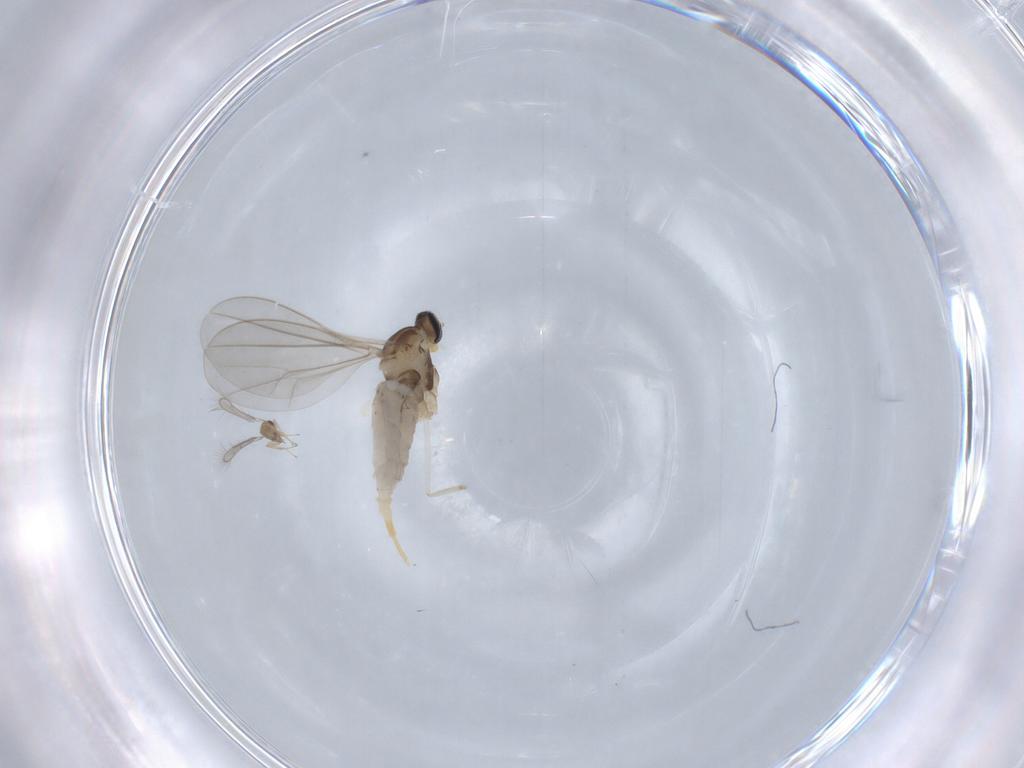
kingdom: Animalia
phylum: Arthropoda
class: Insecta
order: Diptera
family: Cecidomyiidae
